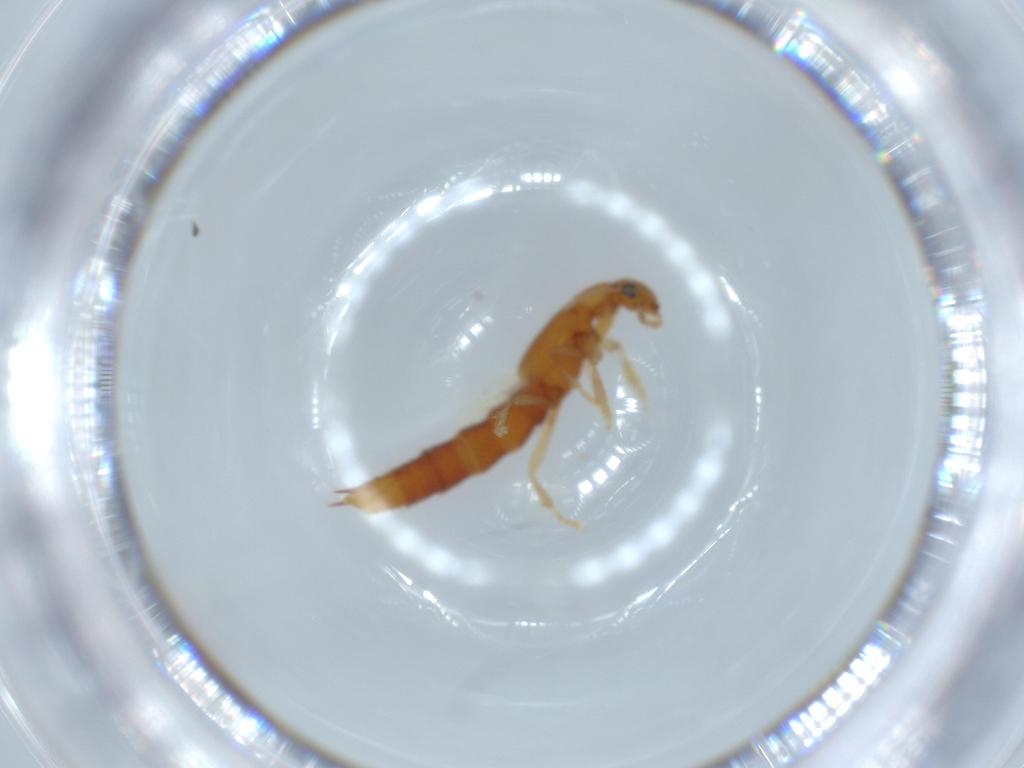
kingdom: Animalia
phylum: Arthropoda
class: Insecta
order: Coleoptera
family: Staphylinidae
